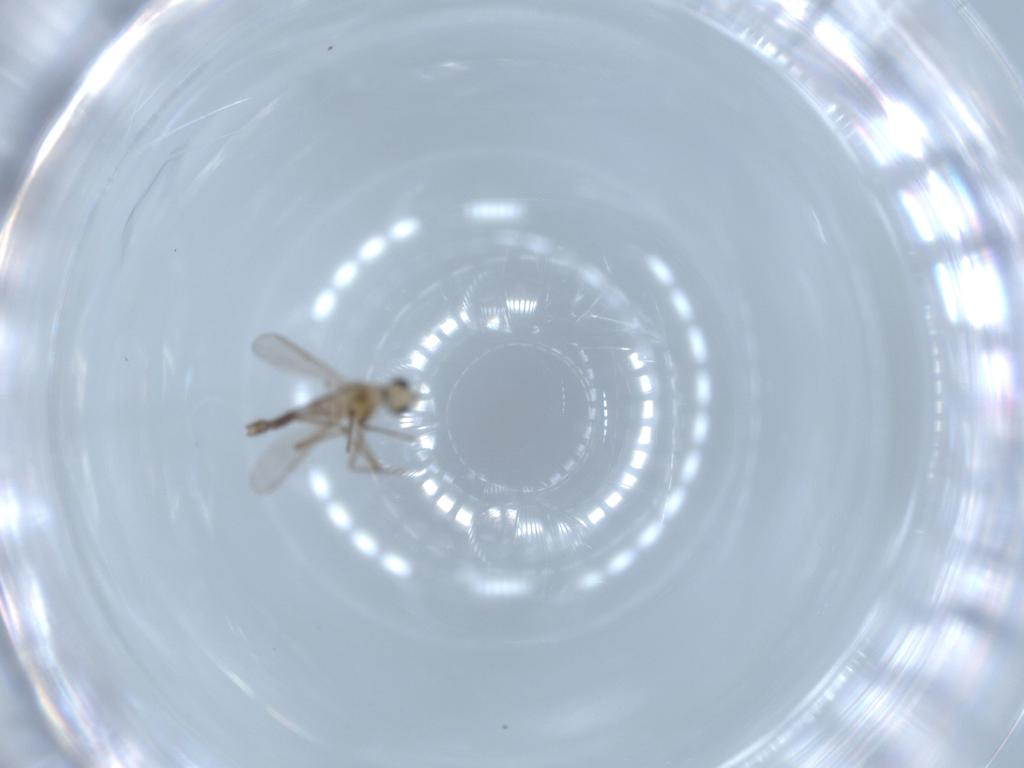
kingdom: Animalia
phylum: Arthropoda
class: Insecta
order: Diptera
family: Chironomidae
